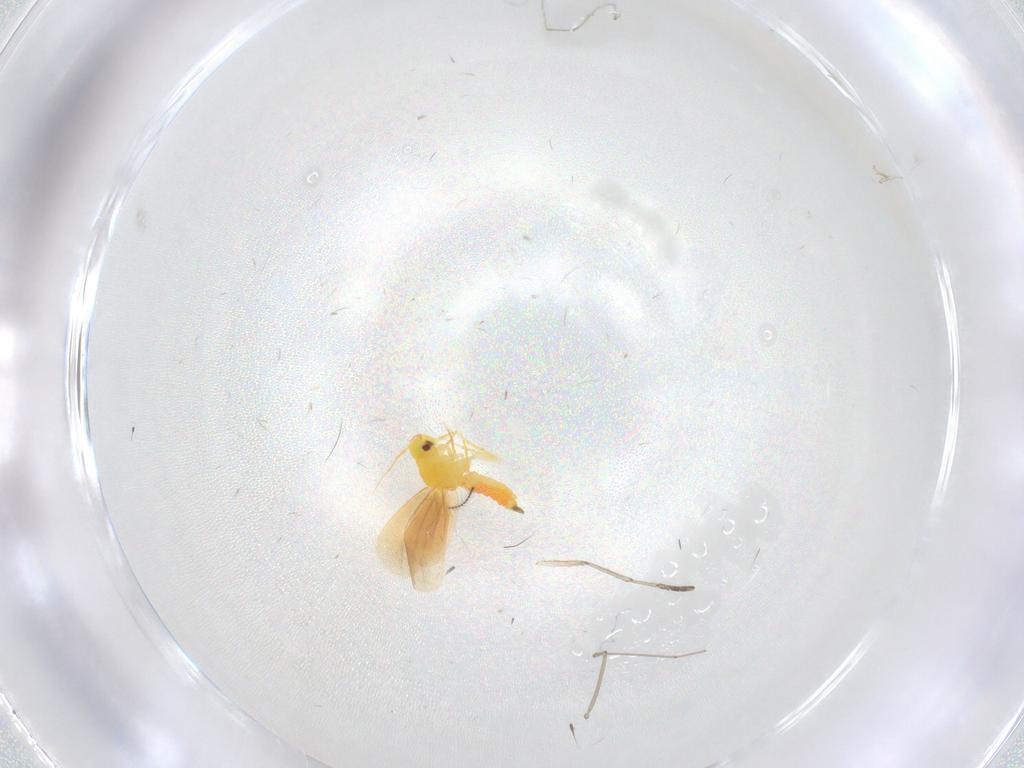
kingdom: Animalia
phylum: Arthropoda
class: Insecta
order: Hemiptera
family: Aleyrodidae
